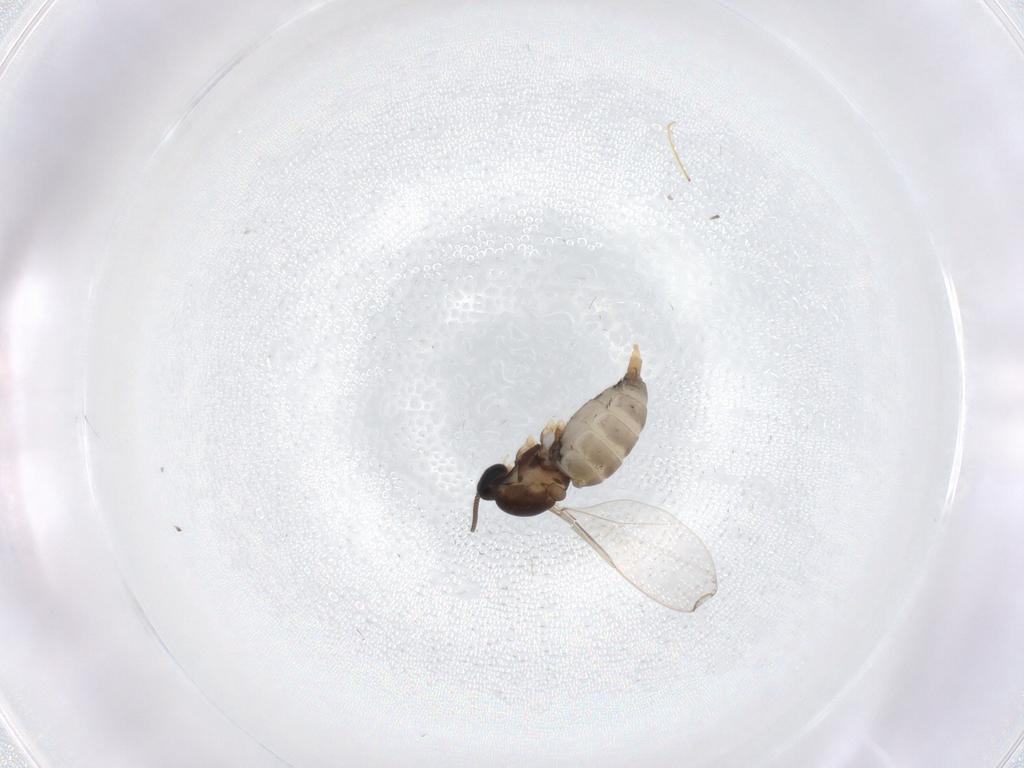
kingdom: Animalia
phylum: Arthropoda
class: Insecta
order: Diptera
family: Cecidomyiidae
